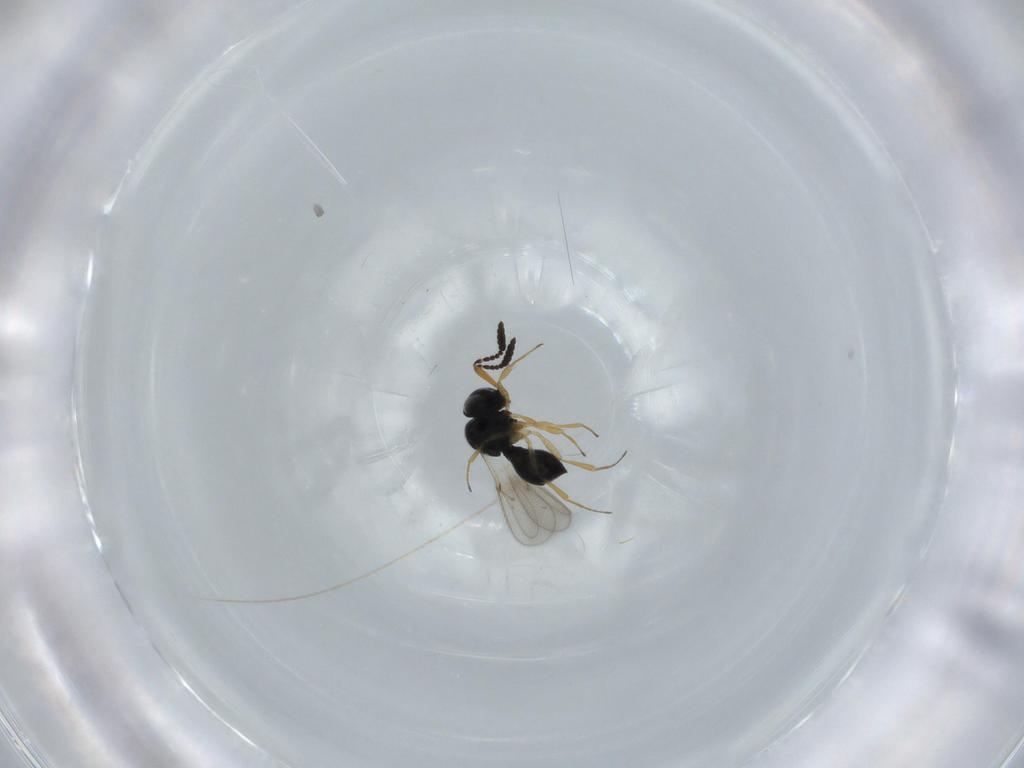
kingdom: Animalia
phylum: Arthropoda
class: Insecta
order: Hymenoptera
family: Scelionidae
